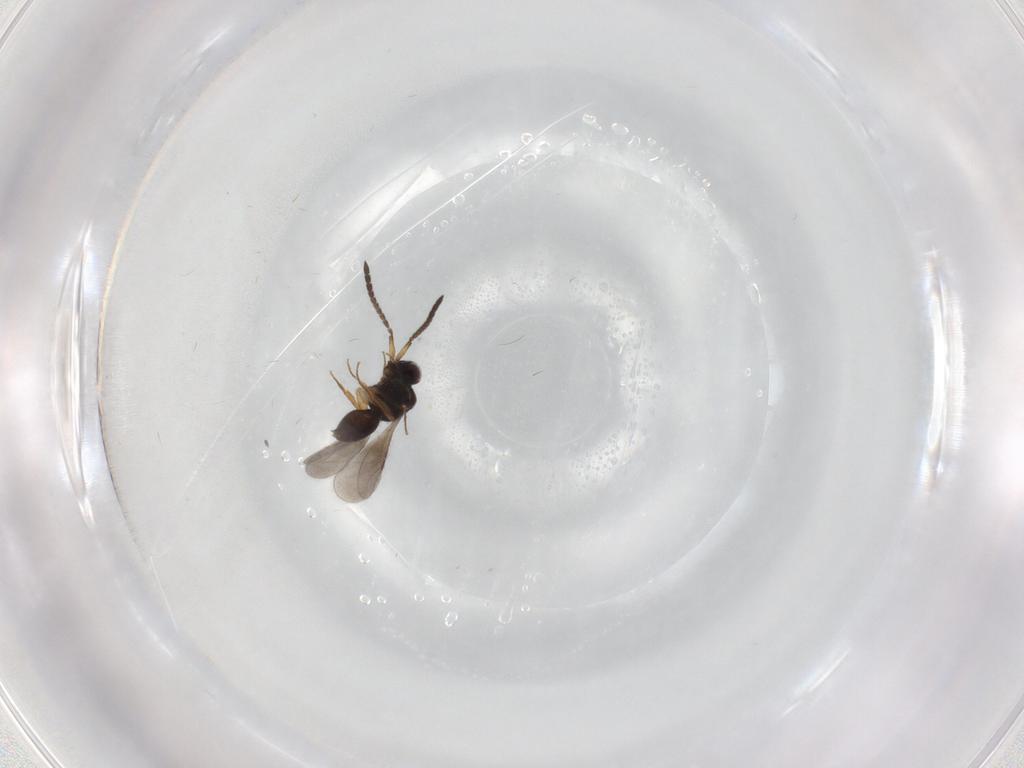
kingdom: Animalia
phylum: Arthropoda
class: Insecta
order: Hymenoptera
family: Ceraphronidae
